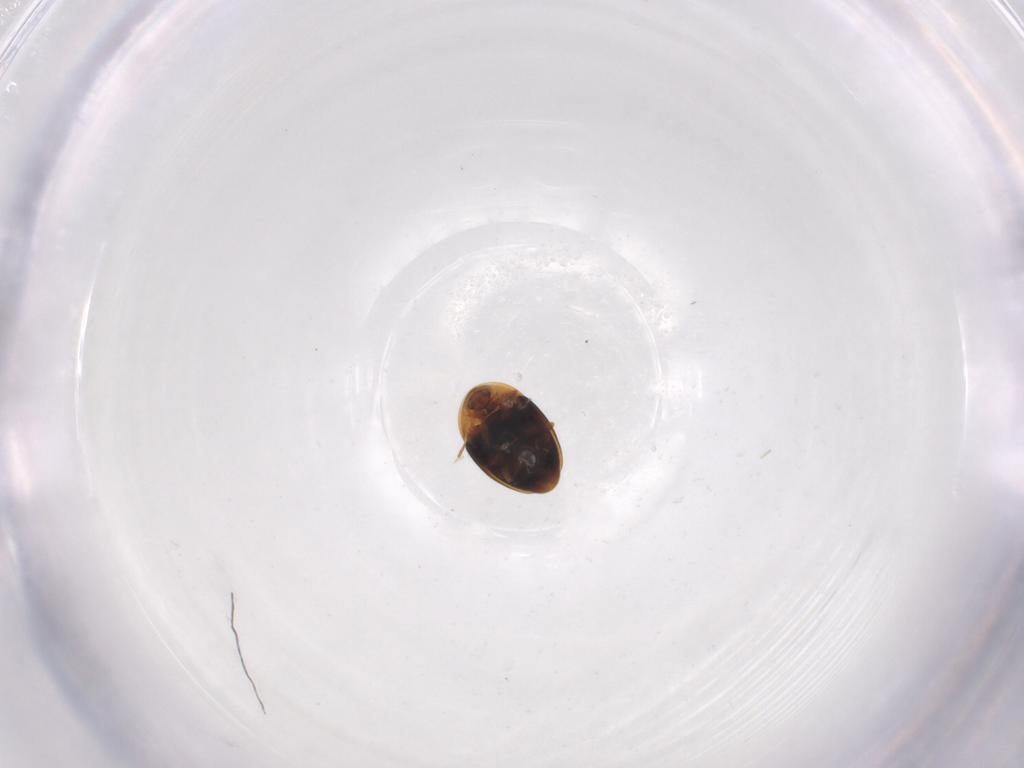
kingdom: Animalia
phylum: Arthropoda
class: Insecta
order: Coleoptera
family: Corylophidae
